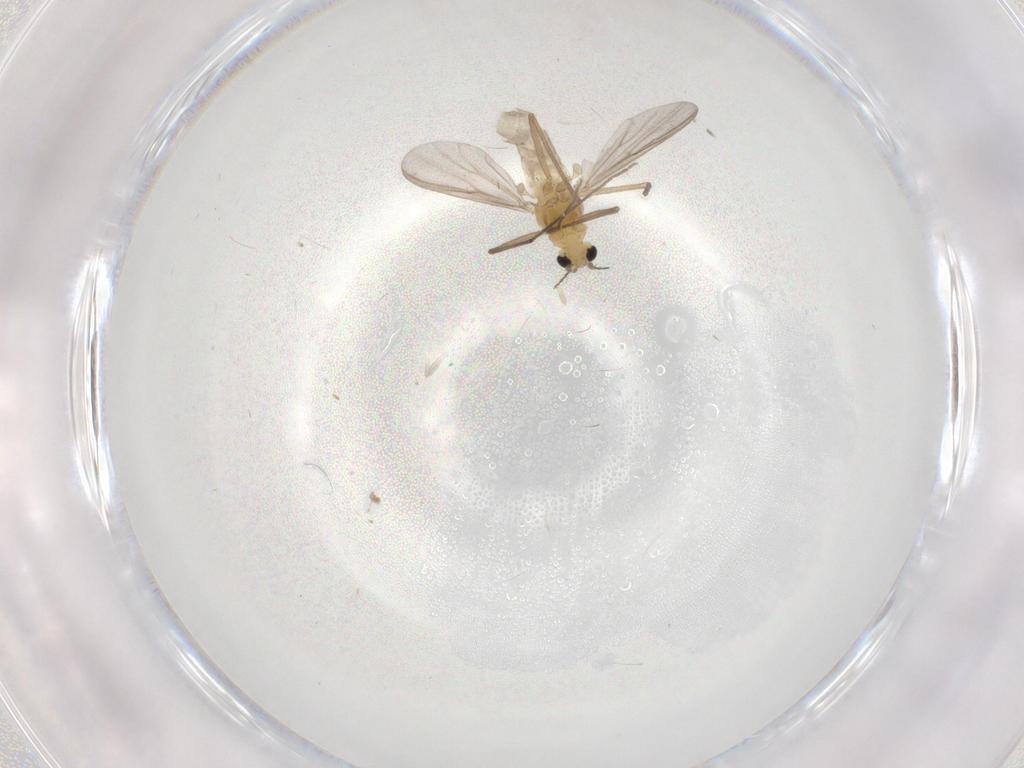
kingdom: Animalia
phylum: Arthropoda
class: Insecta
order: Diptera
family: Chironomidae
